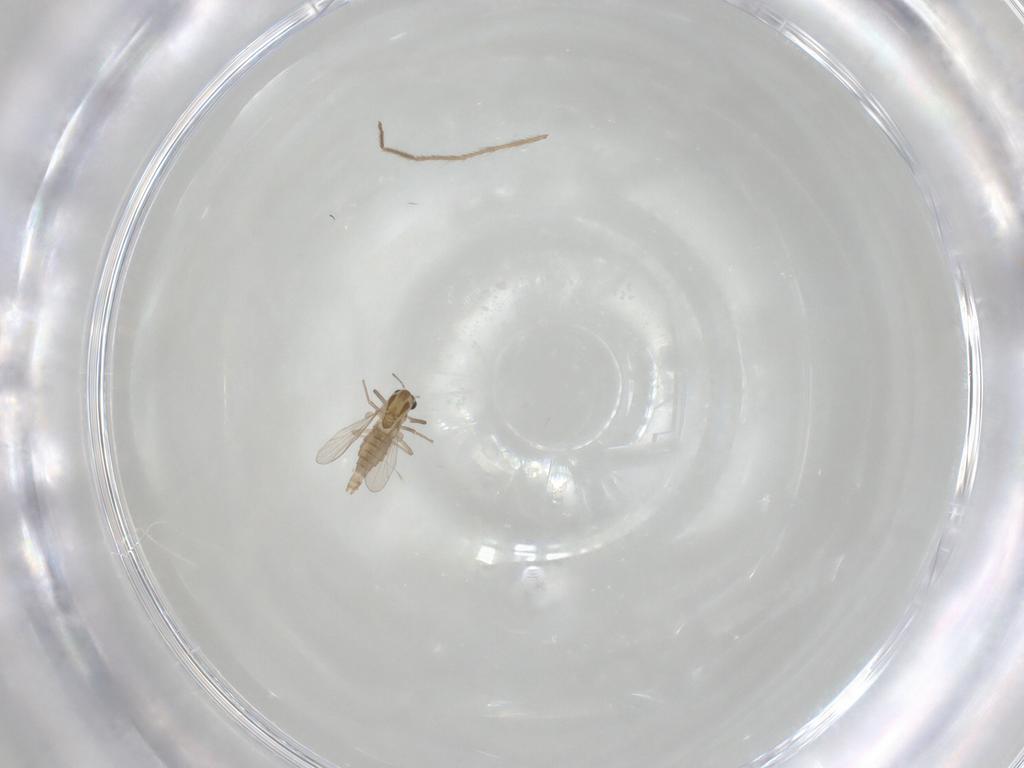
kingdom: Animalia
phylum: Arthropoda
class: Insecta
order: Diptera
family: Chironomidae
